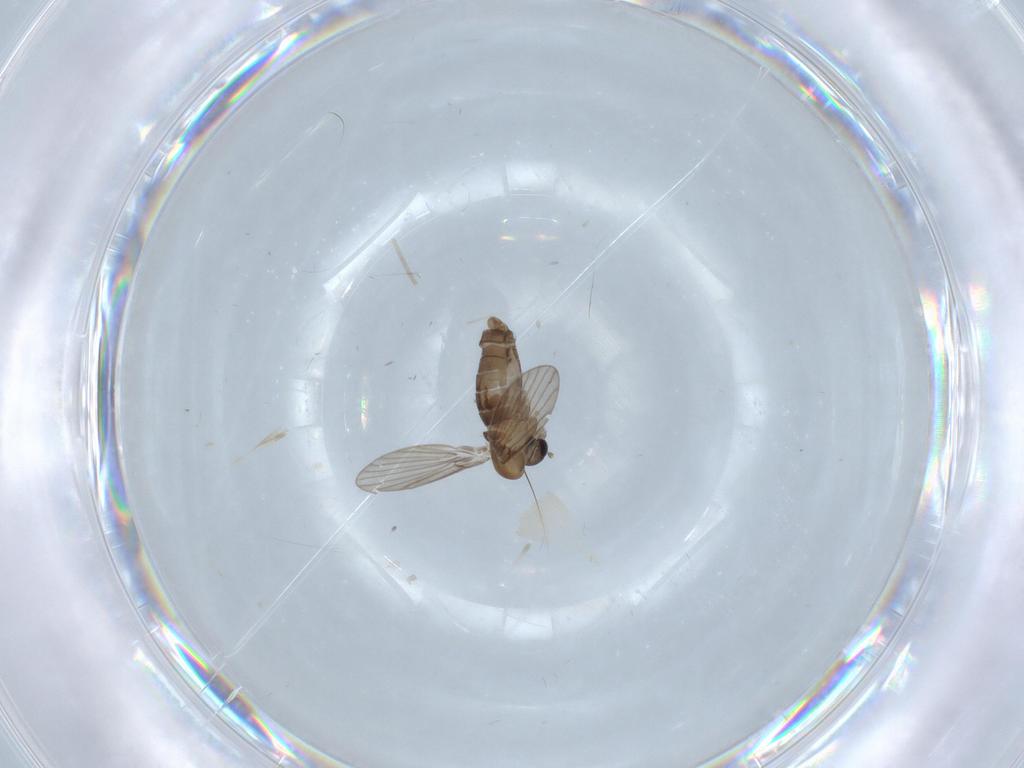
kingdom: Animalia
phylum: Arthropoda
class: Insecta
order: Diptera
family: Psychodidae
